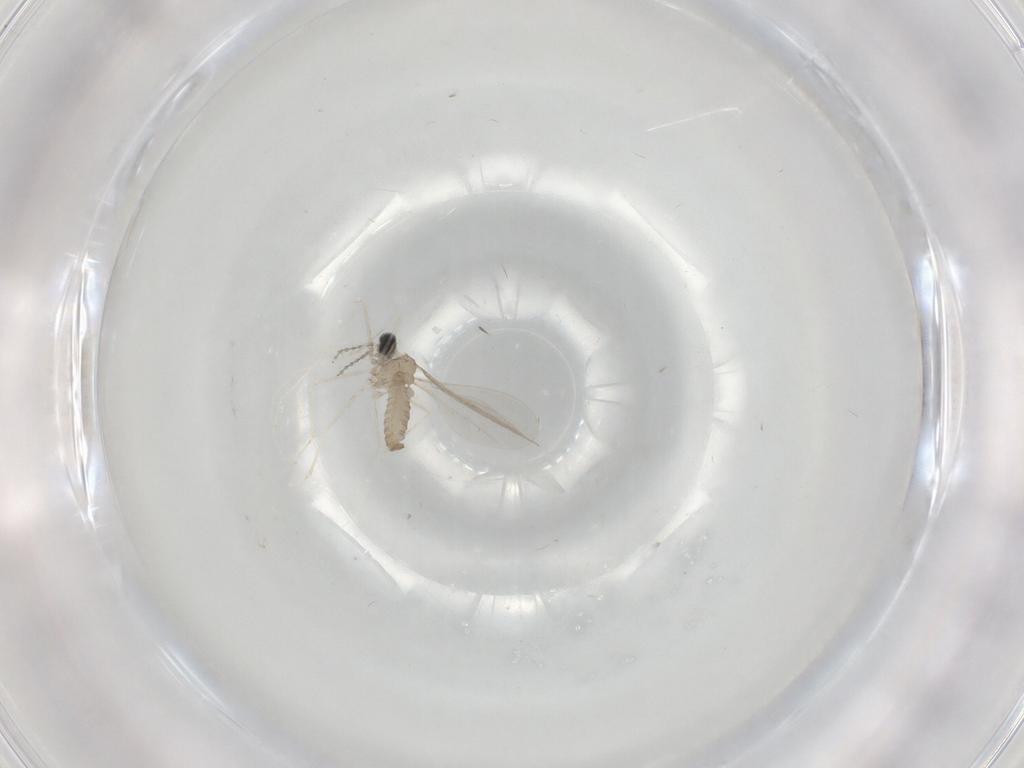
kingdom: Animalia
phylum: Arthropoda
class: Insecta
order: Diptera
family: Cecidomyiidae
